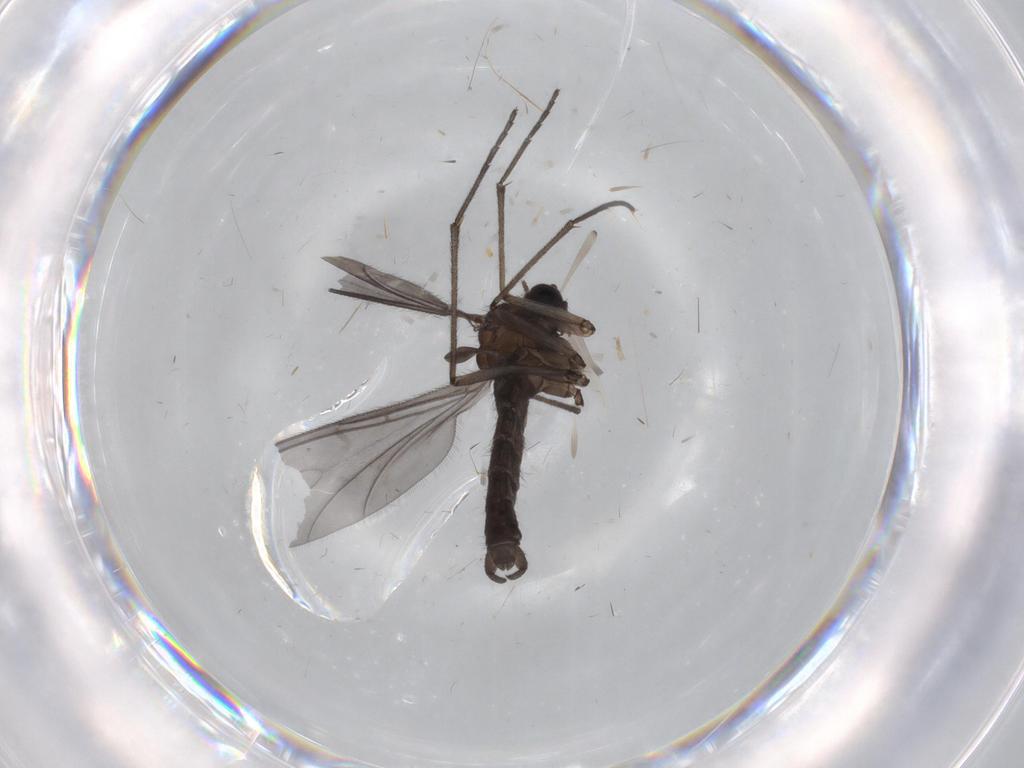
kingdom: Animalia
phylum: Arthropoda
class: Insecta
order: Diptera
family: Sciaridae
